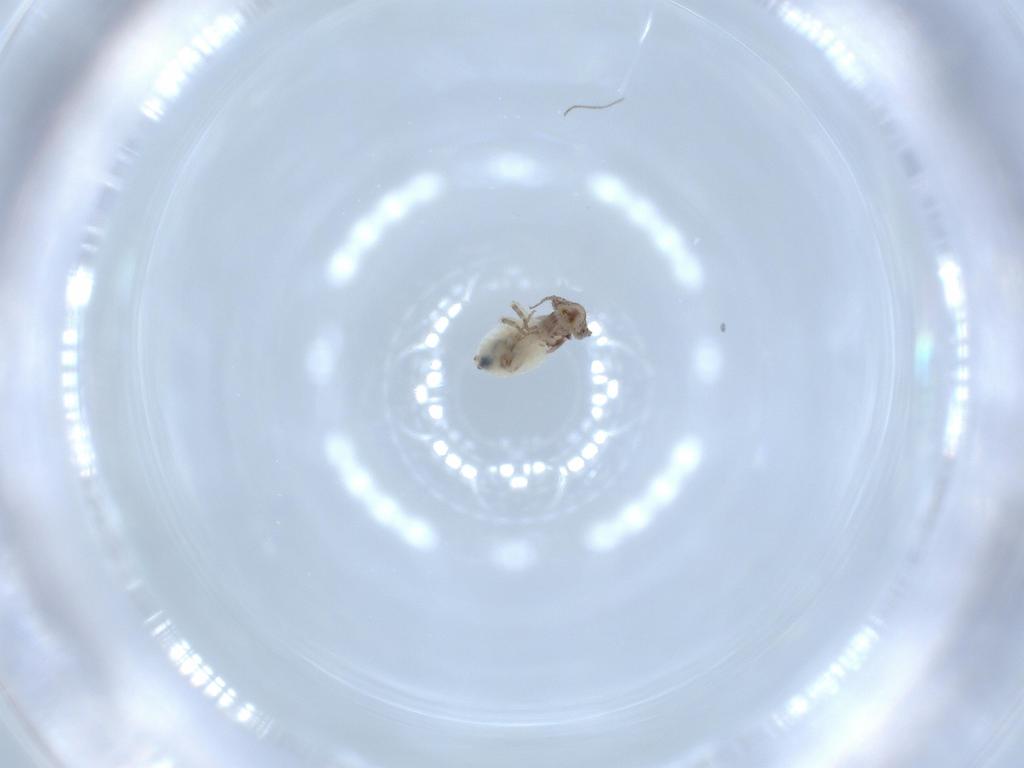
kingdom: Animalia
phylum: Arthropoda
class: Insecta
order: Psocodea
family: Lepidopsocidae
